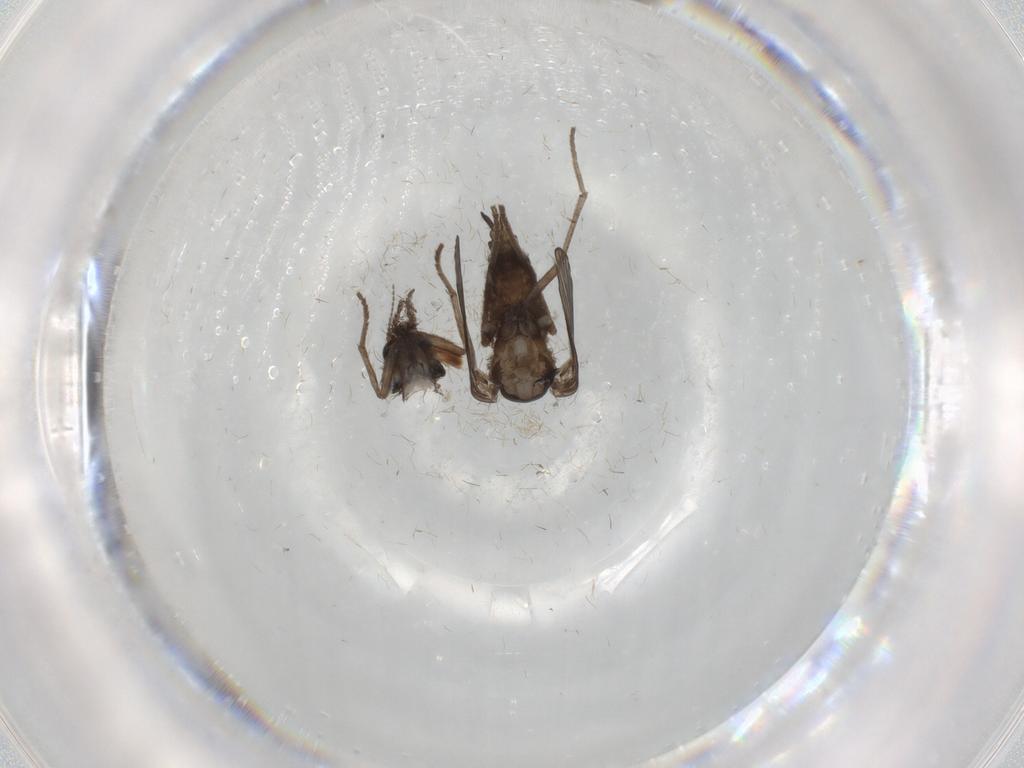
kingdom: Animalia
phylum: Arthropoda
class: Insecta
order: Diptera
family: Psychodidae
